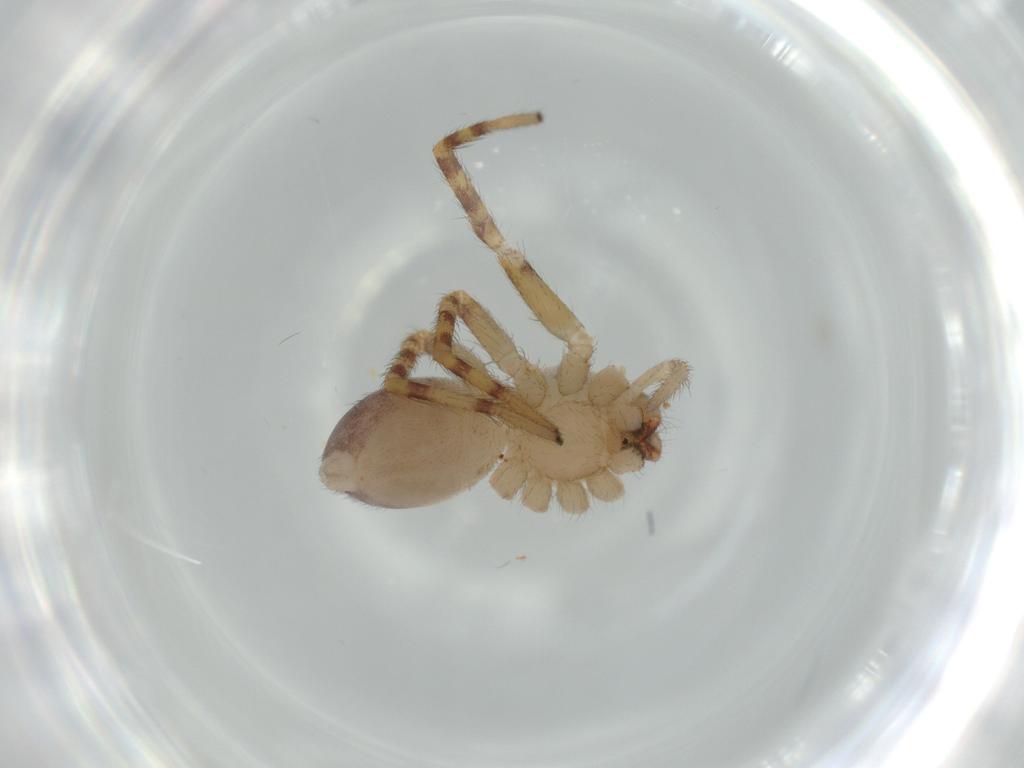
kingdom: Animalia
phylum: Arthropoda
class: Arachnida
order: Araneae
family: Corinnidae
